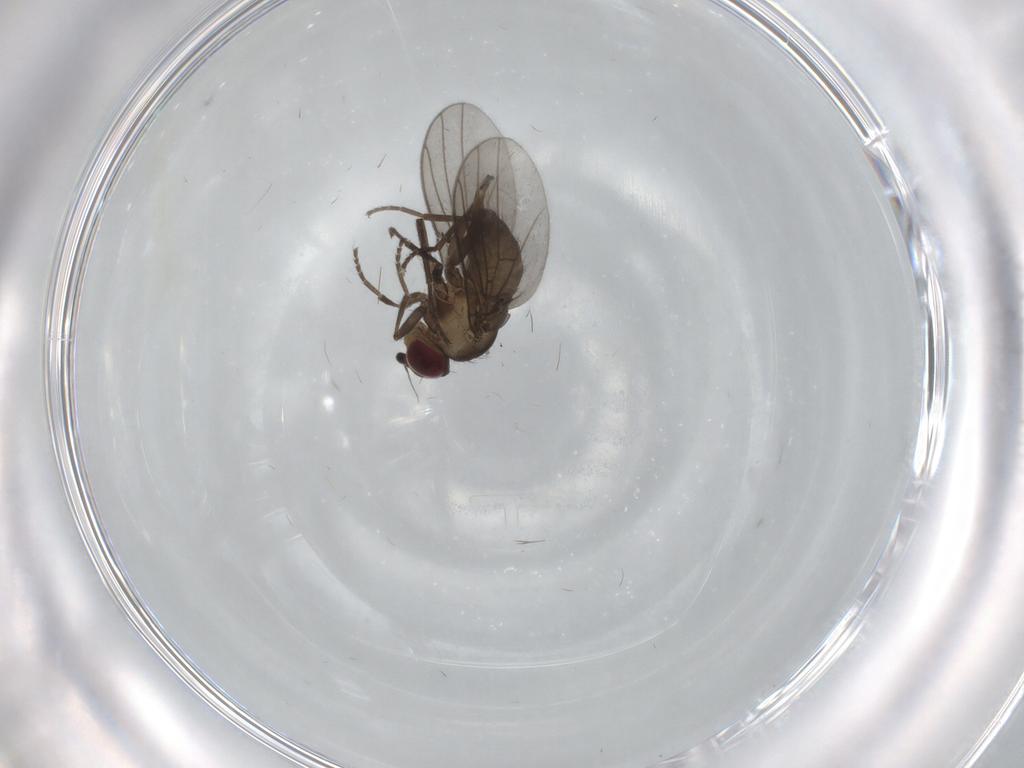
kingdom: Animalia
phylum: Arthropoda
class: Insecta
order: Diptera
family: Chironomidae
